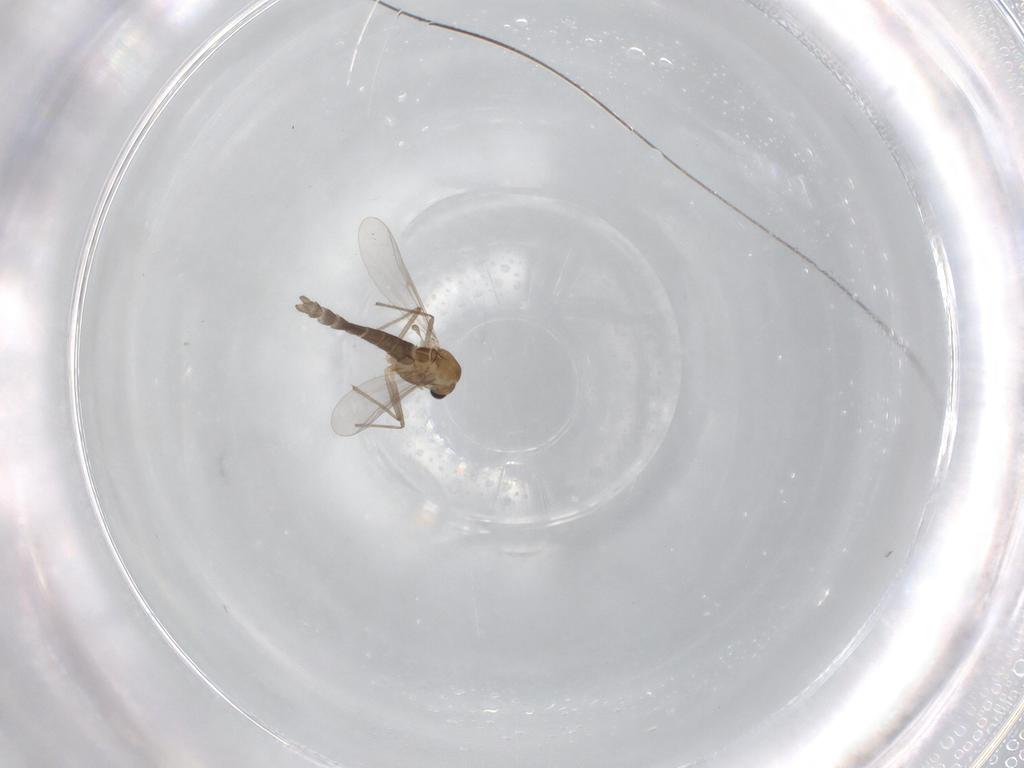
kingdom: Animalia
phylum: Arthropoda
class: Insecta
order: Diptera
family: Chironomidae
